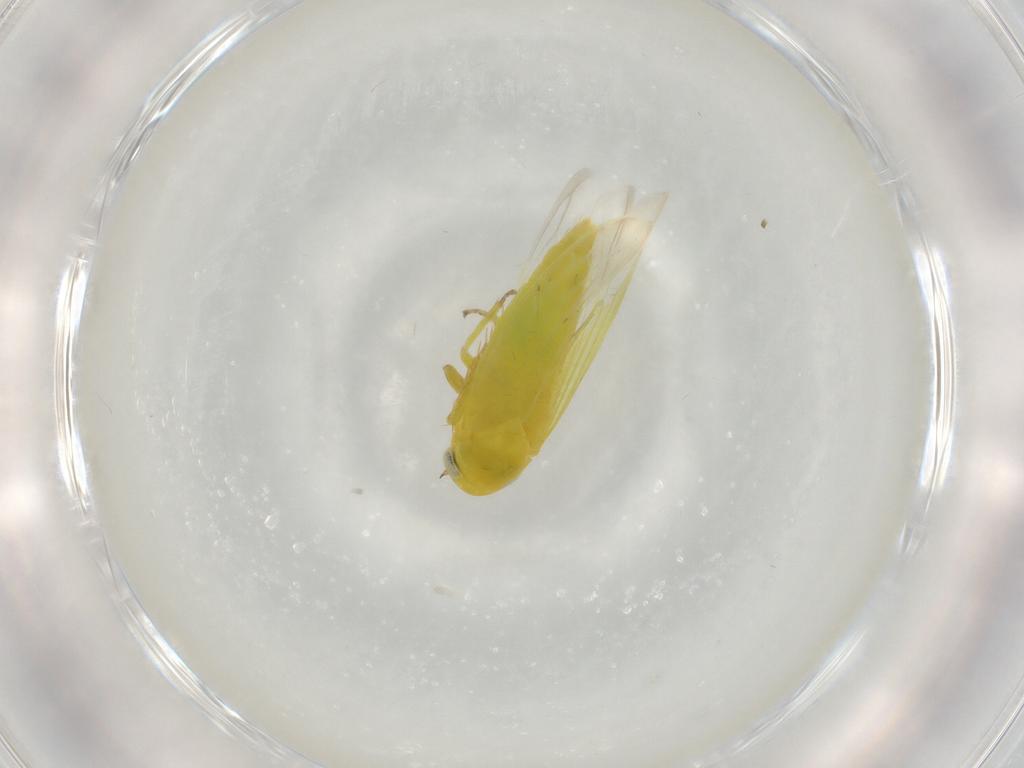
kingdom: Animalia
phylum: Arthropoda
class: Insecta
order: Hemiptera
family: Cicadellidae
